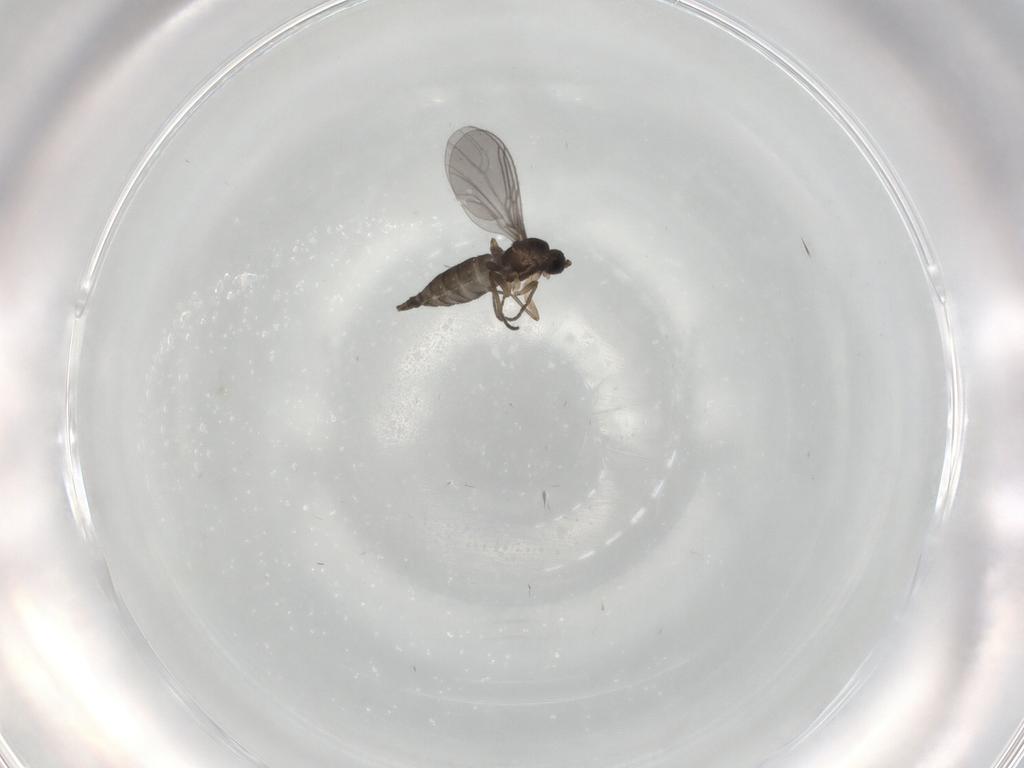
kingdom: Animalia
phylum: Arthropoda
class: Insecta
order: Diptera
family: Sciaridae
